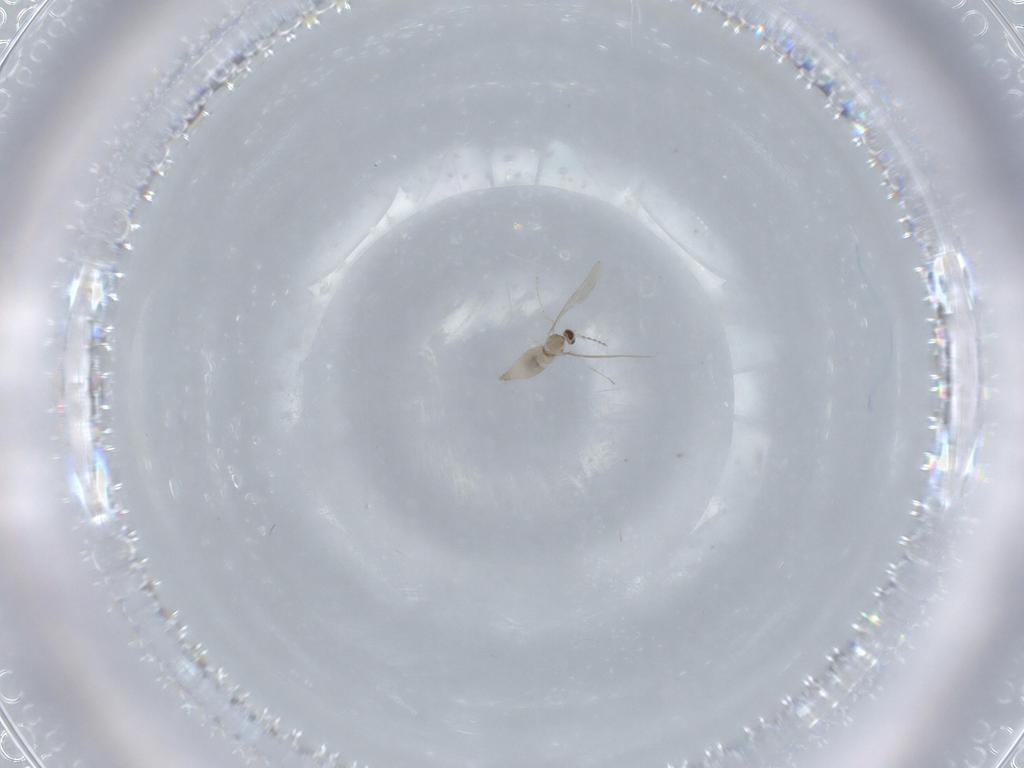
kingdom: Animalia
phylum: Arthropoda
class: Insecta
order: Diptera
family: Cecidomyiidae
